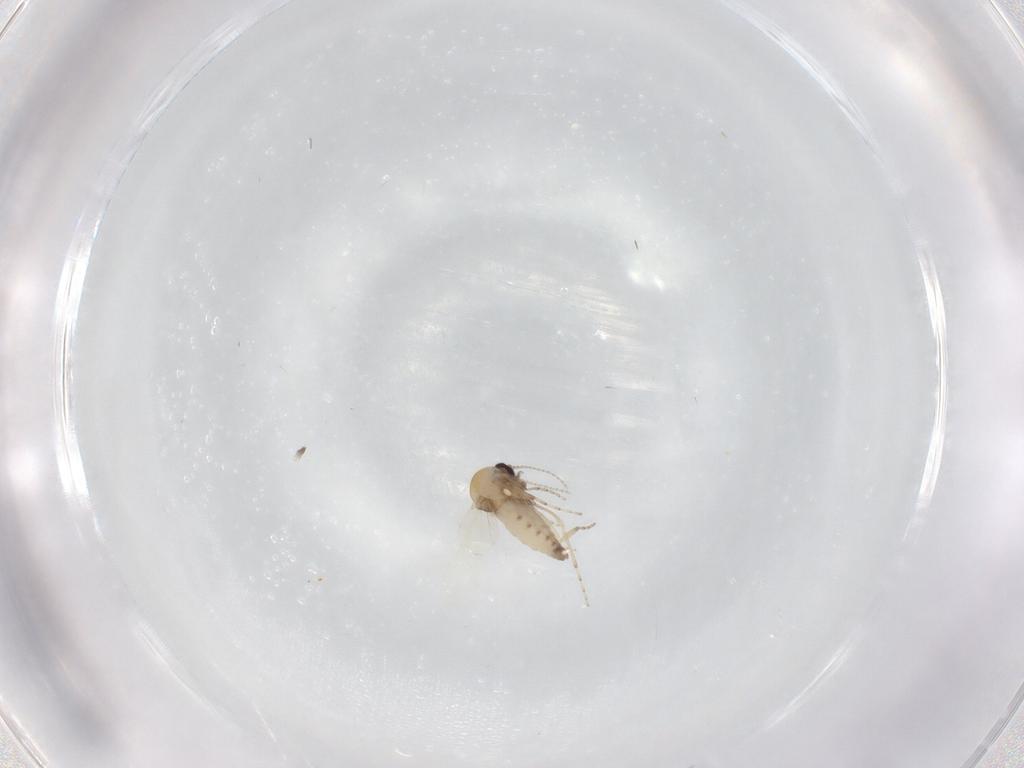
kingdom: Animalia
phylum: Arthropoda
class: Insecta
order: Diptera
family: Ceratopogonidae
